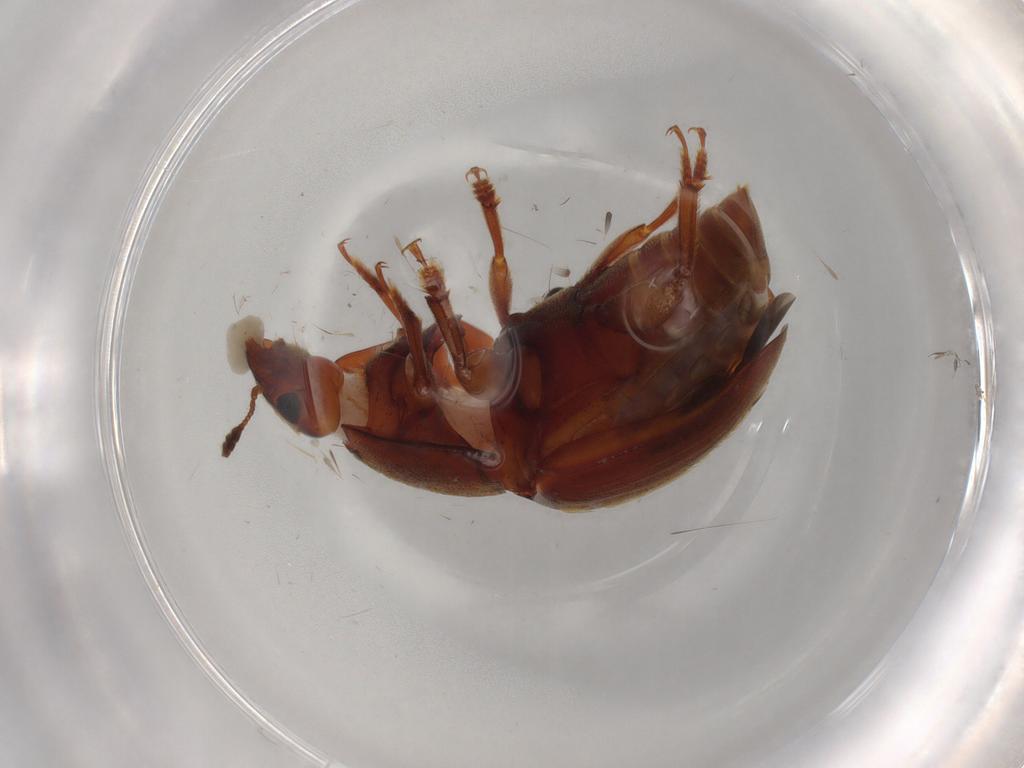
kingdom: Animalia
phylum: Arthropoda
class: Insecta
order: Coleoptera
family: Nitidulidae
